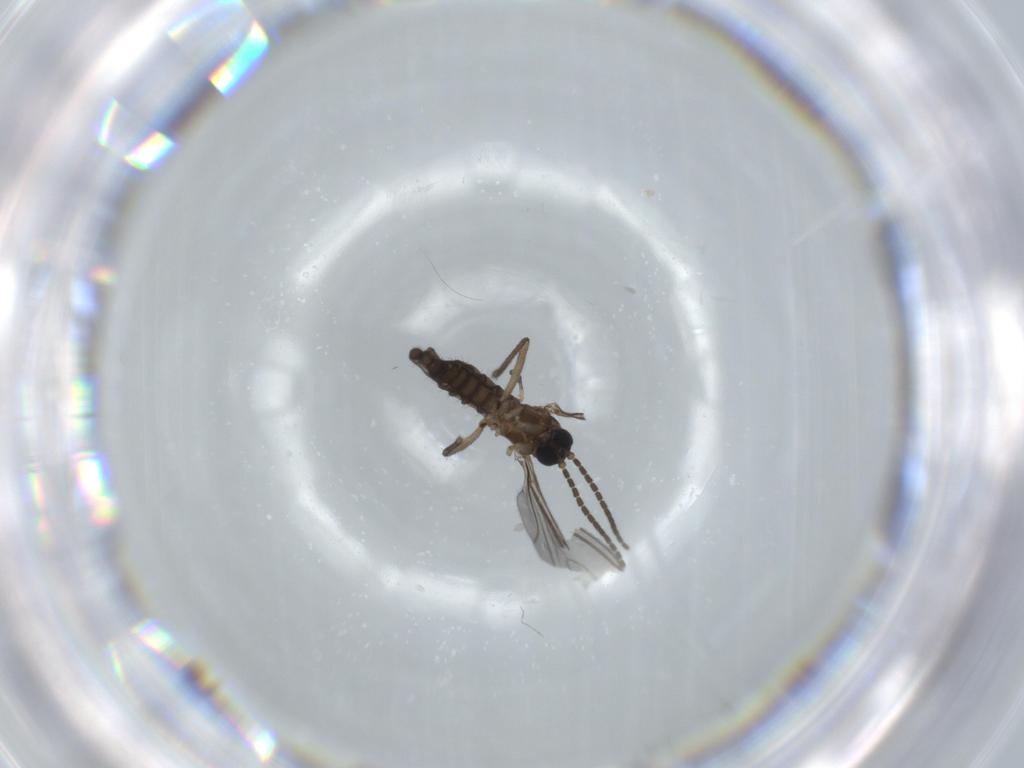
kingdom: Animalia
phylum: Arthropoda
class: Insecta
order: Diptera
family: Sciaridae
